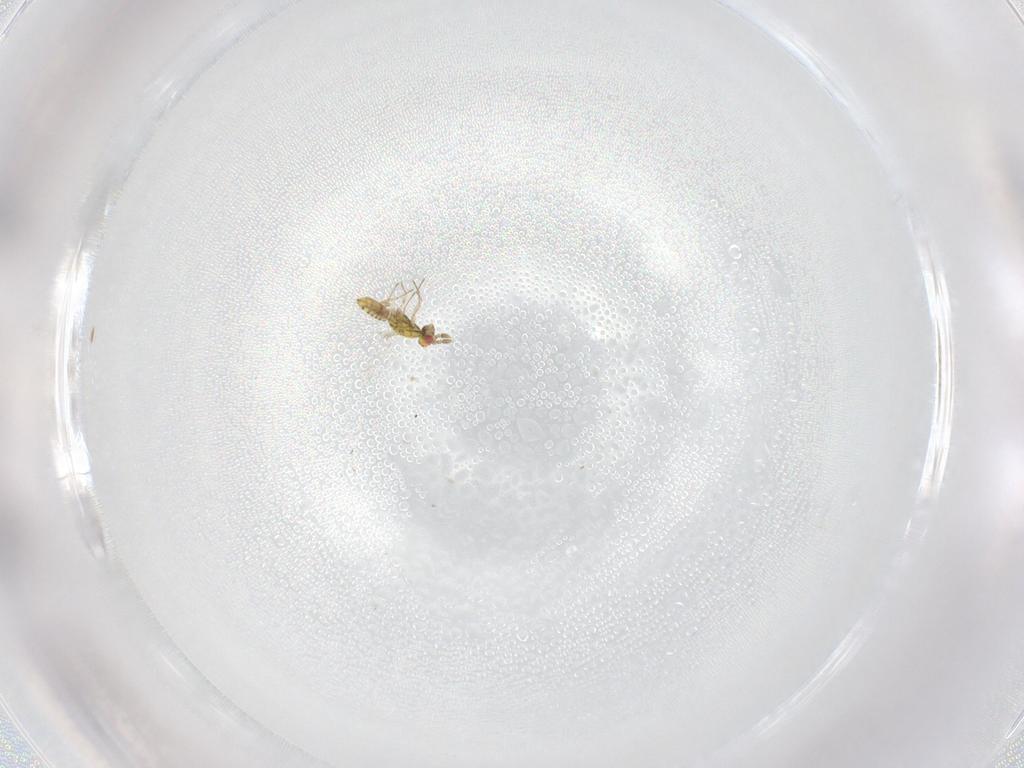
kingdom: Animalia
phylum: Arthropoda
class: Insecta
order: Hymenoptera
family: Eulophidae
